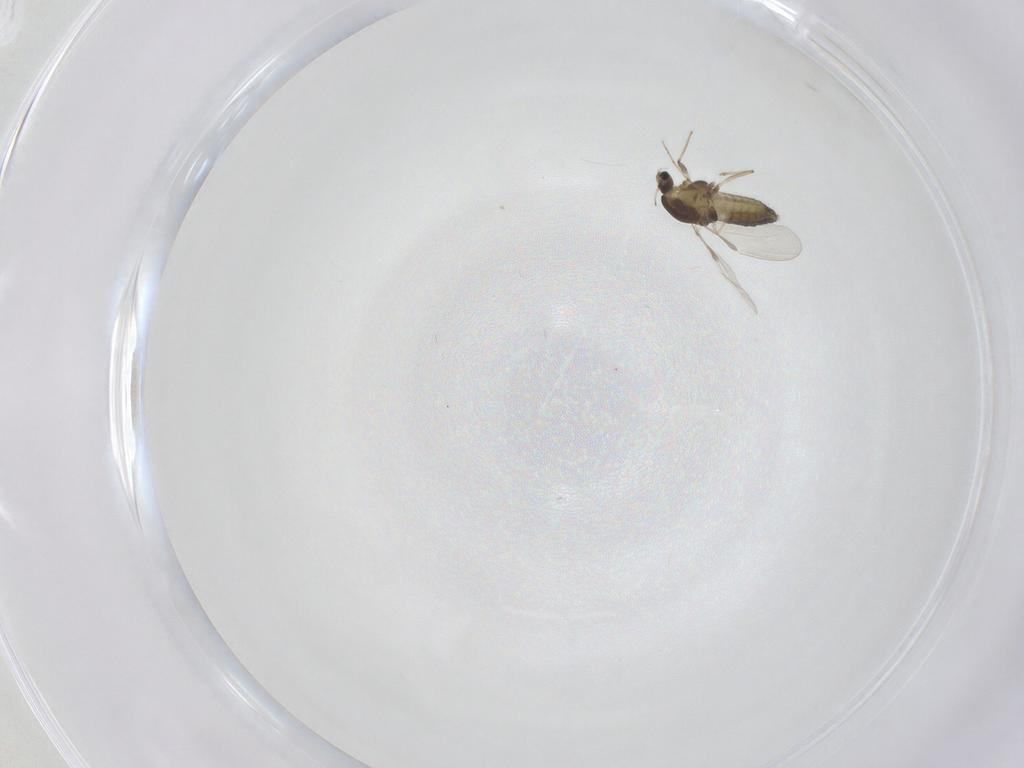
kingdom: Animalia
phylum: Arthropoda
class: Insecta
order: Diptera
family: Chironomidae
